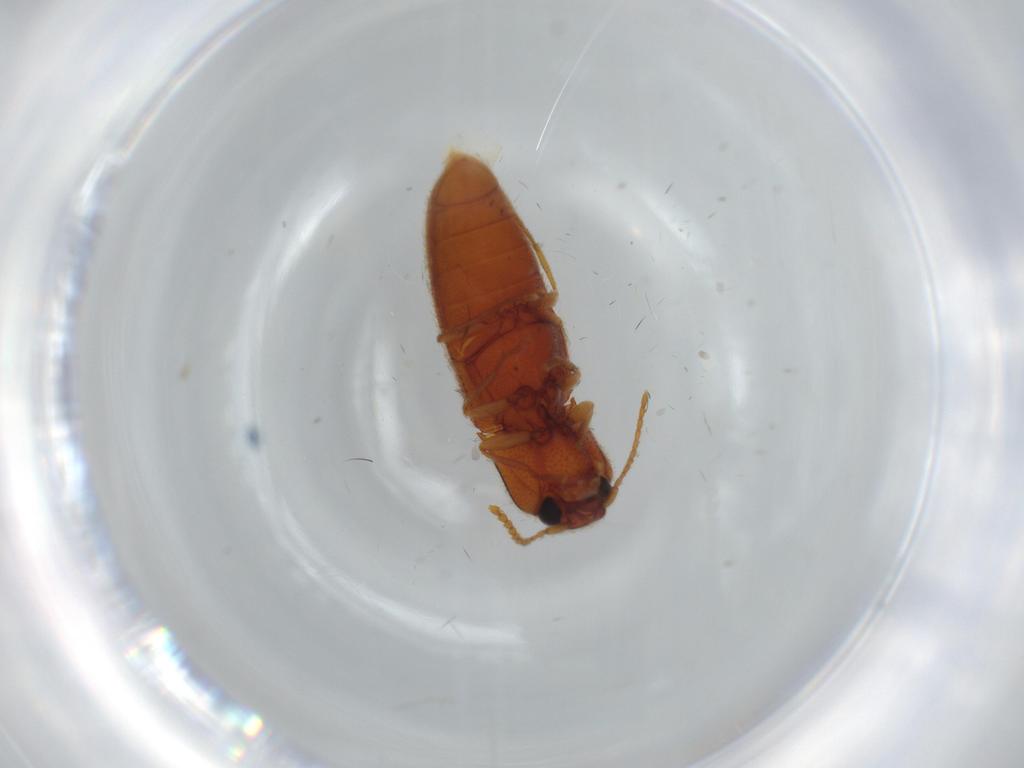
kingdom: Animalia
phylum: Arthropoda
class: Insecta
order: Coleoptera
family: Elateridae
